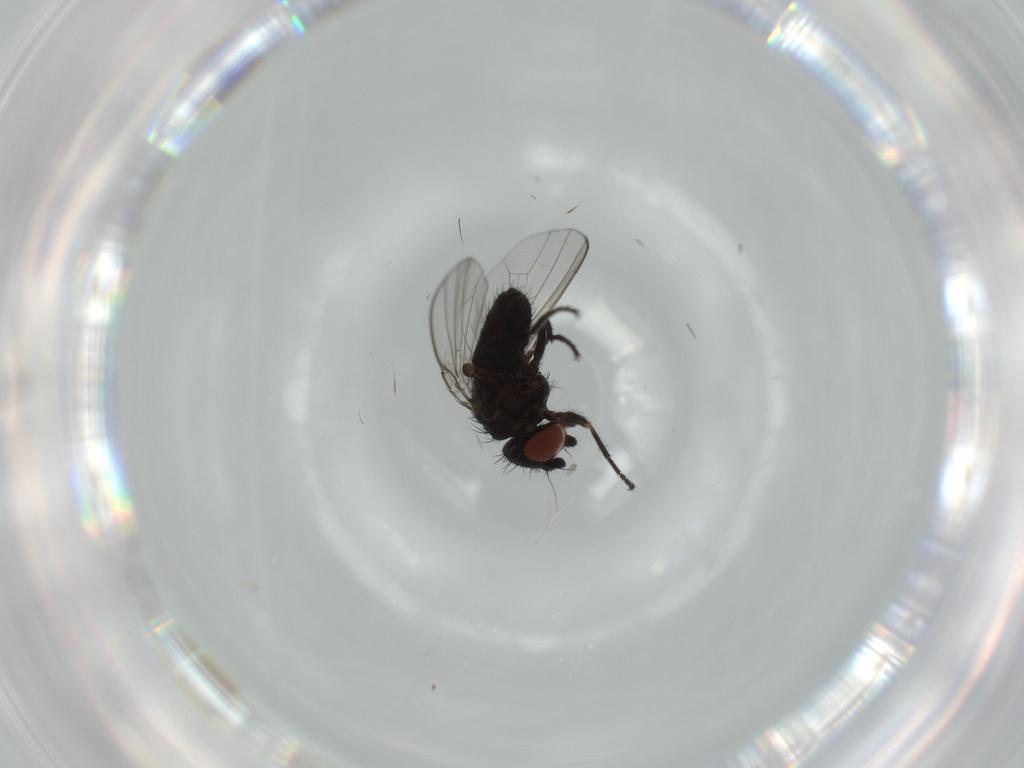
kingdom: Animalia
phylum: Arthropoda
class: Insecta
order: Diptera
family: Milichiidae
